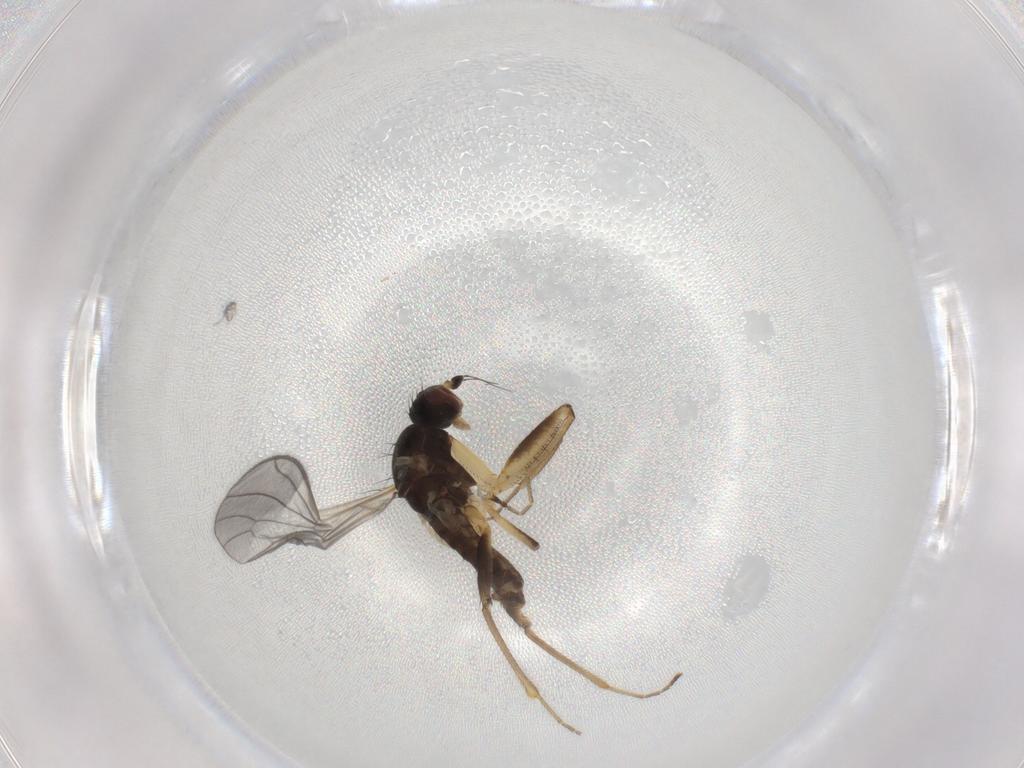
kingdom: Animalia
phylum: Arthropoda
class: Insecta
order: Diptera
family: Empididae
